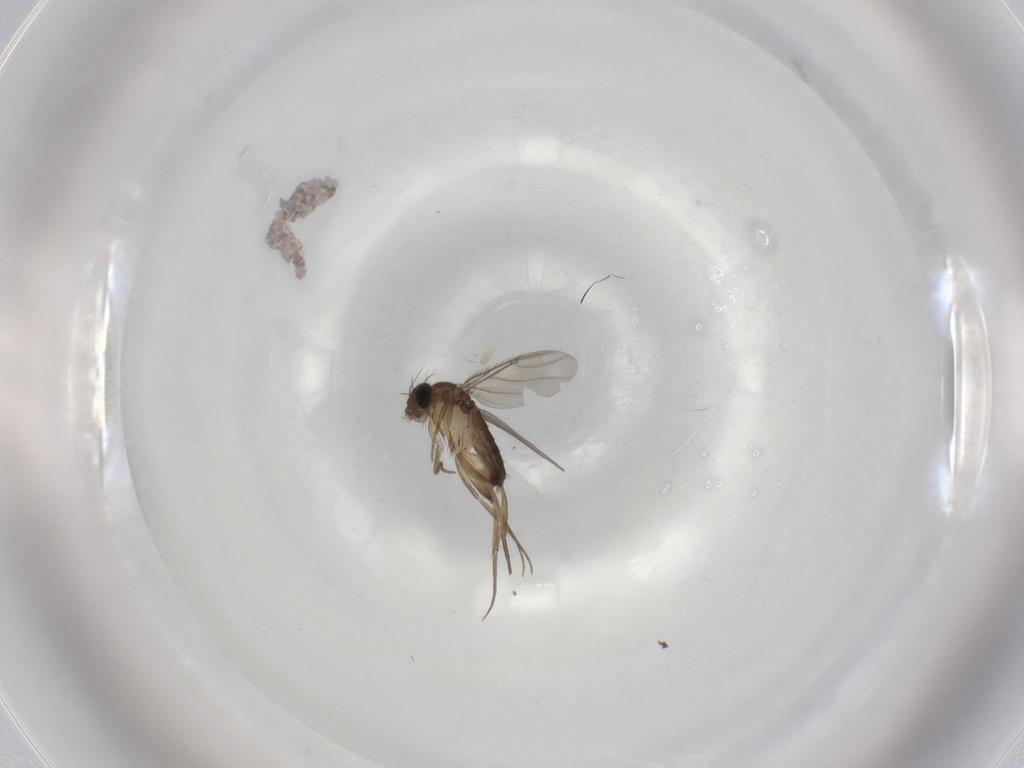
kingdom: Animalia
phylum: Arthropoda
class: Insecta
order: Diptera
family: Phoridae
